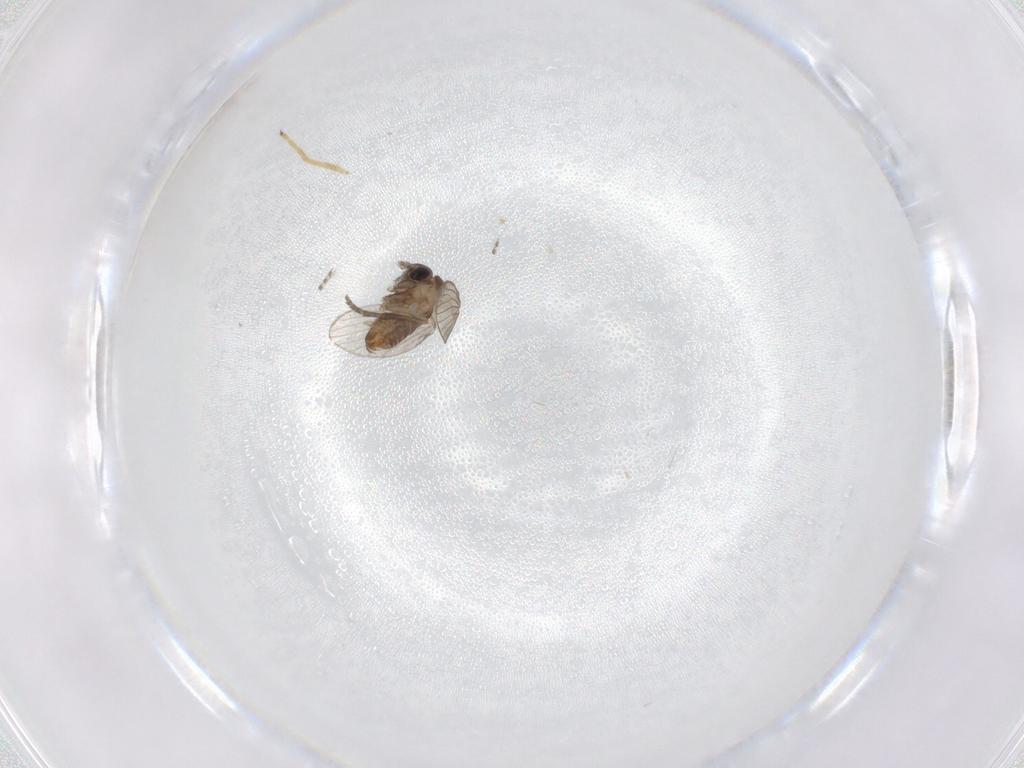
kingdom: Animalia
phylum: Arthropoda
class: Insecta
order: Diptera
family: Chironomidae
